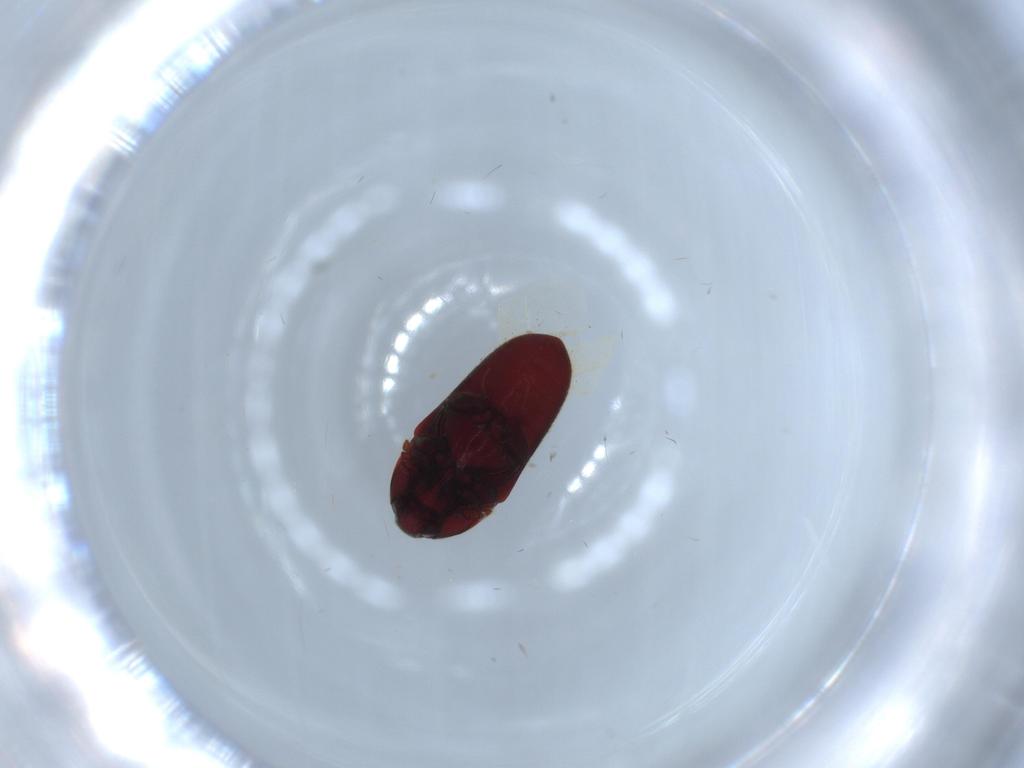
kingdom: Animalia
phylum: Arthropoda
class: Insecta
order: Coleoptera
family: Throscidae
